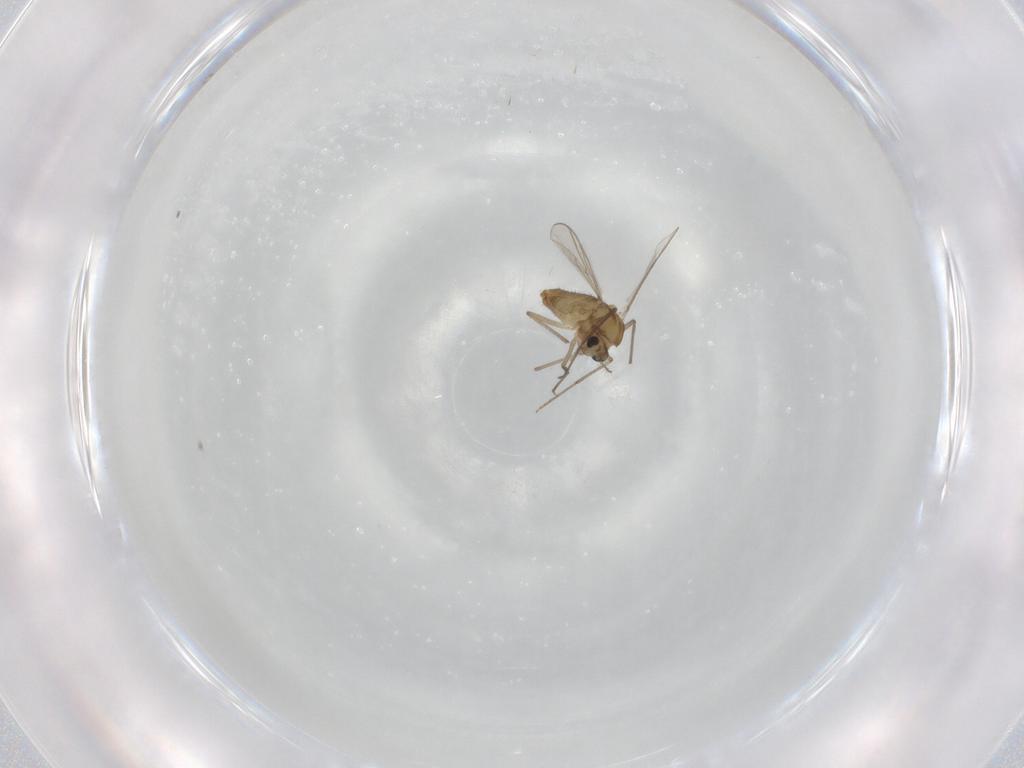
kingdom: Animalia
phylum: Arthropoda
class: Insecta
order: Diptera
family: Chironomidae
